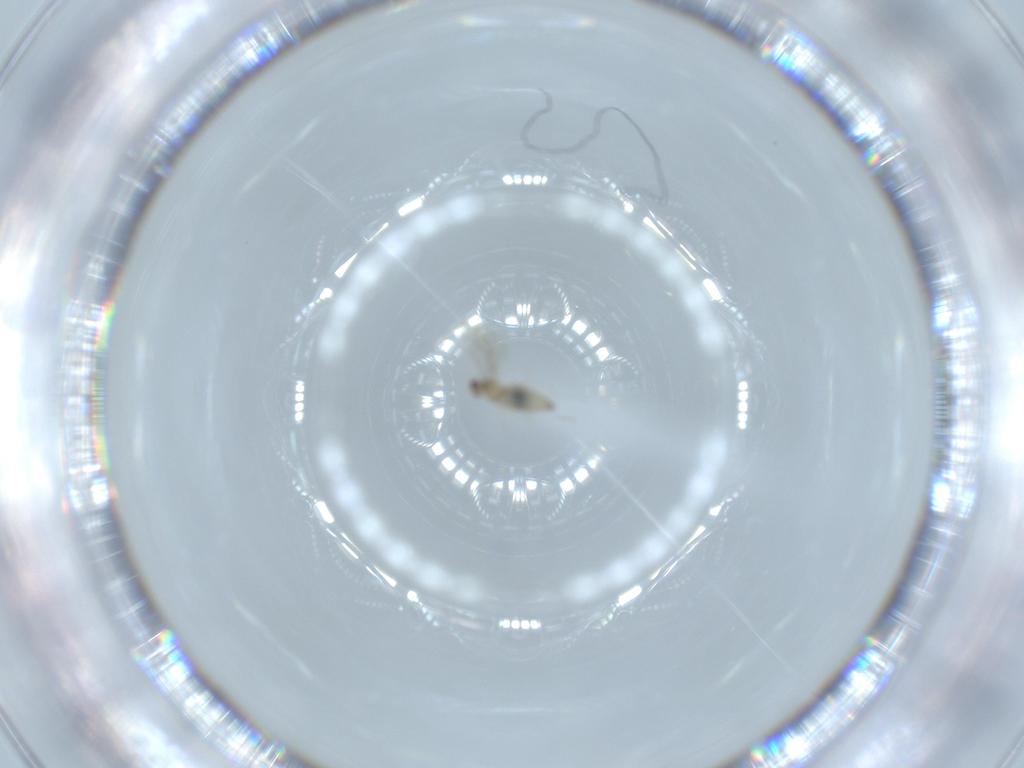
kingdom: Animalia
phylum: Arthropoda
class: Insecta
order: Diptera
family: Cecidomyiidae
